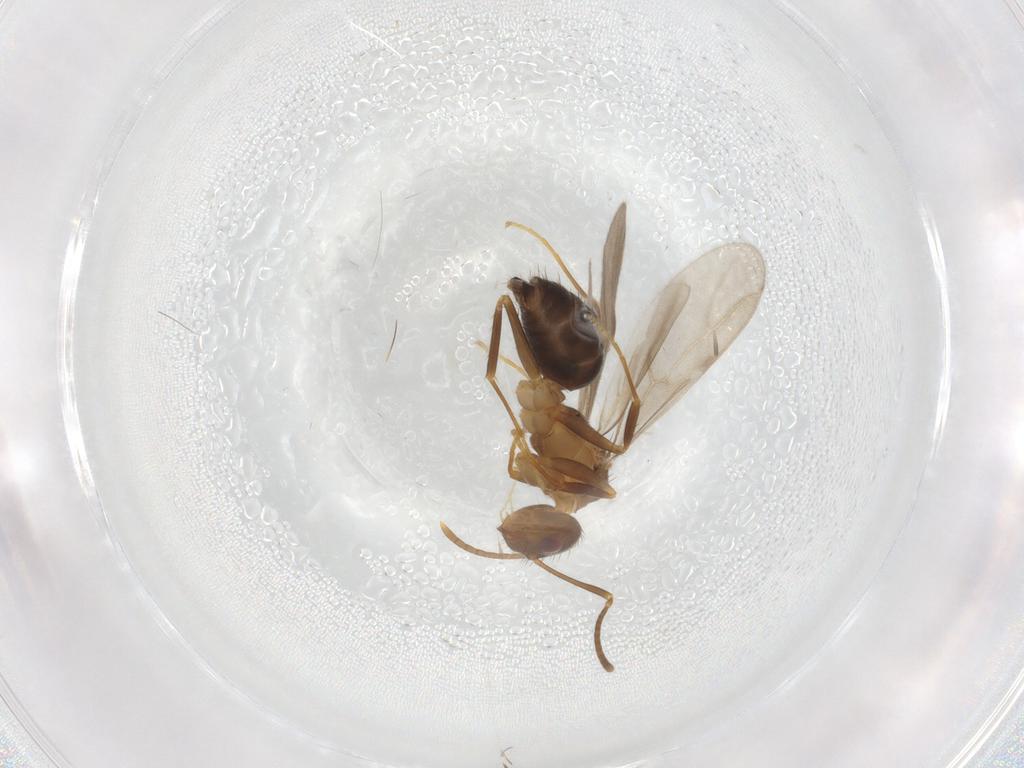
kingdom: Animalia
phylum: Arthropoda
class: Insecta
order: Hymenoptera
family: Formicidae
